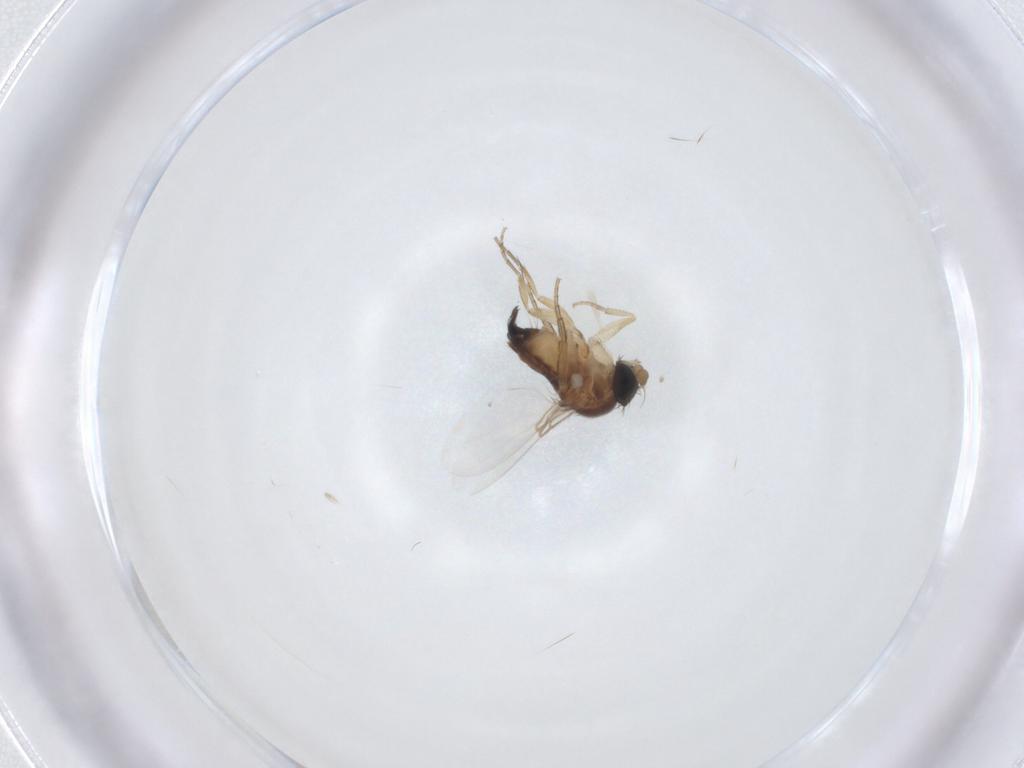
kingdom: Animalia
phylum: Arthropoda
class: Insecta
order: Diptera
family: Phoridae
